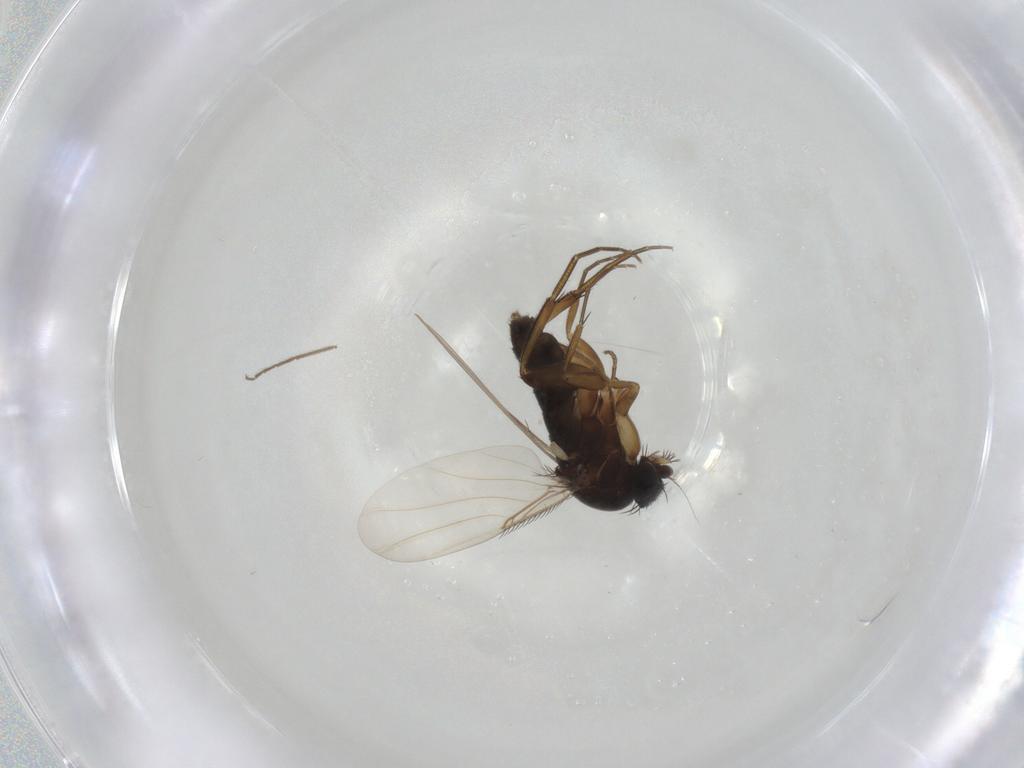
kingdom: Animalia
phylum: Arthropoda
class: Insecta
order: Diptera
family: Phoridae
